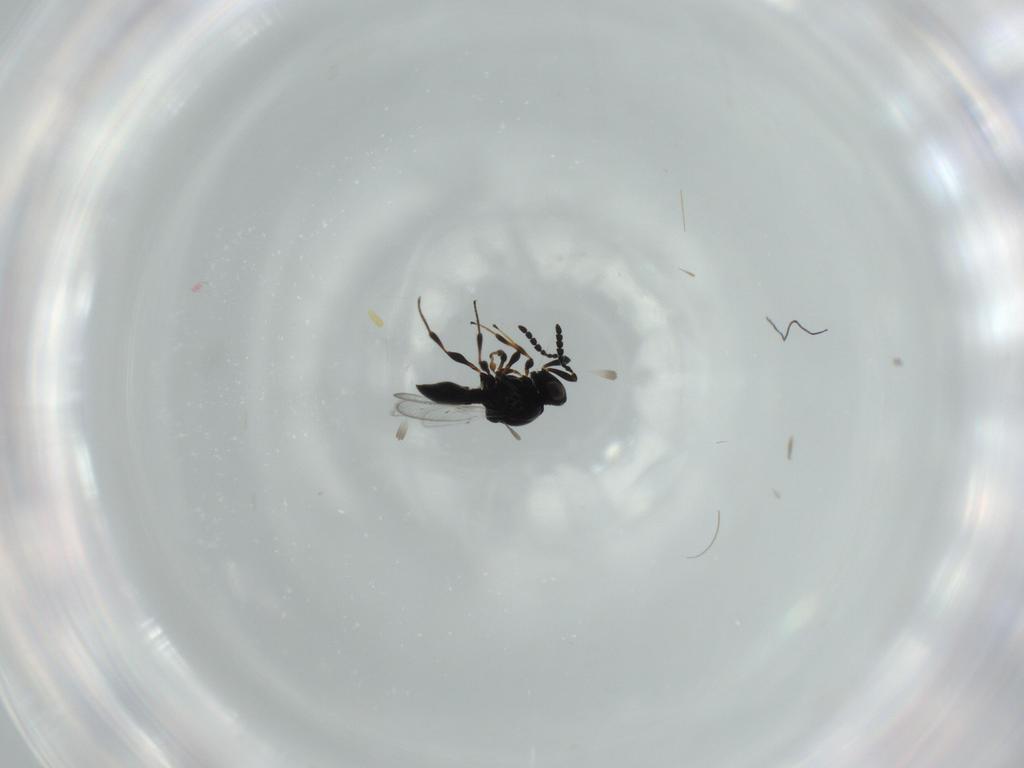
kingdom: Animalia
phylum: Arthropoda
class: Insecta
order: Hymenoptera
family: Platygastridae
